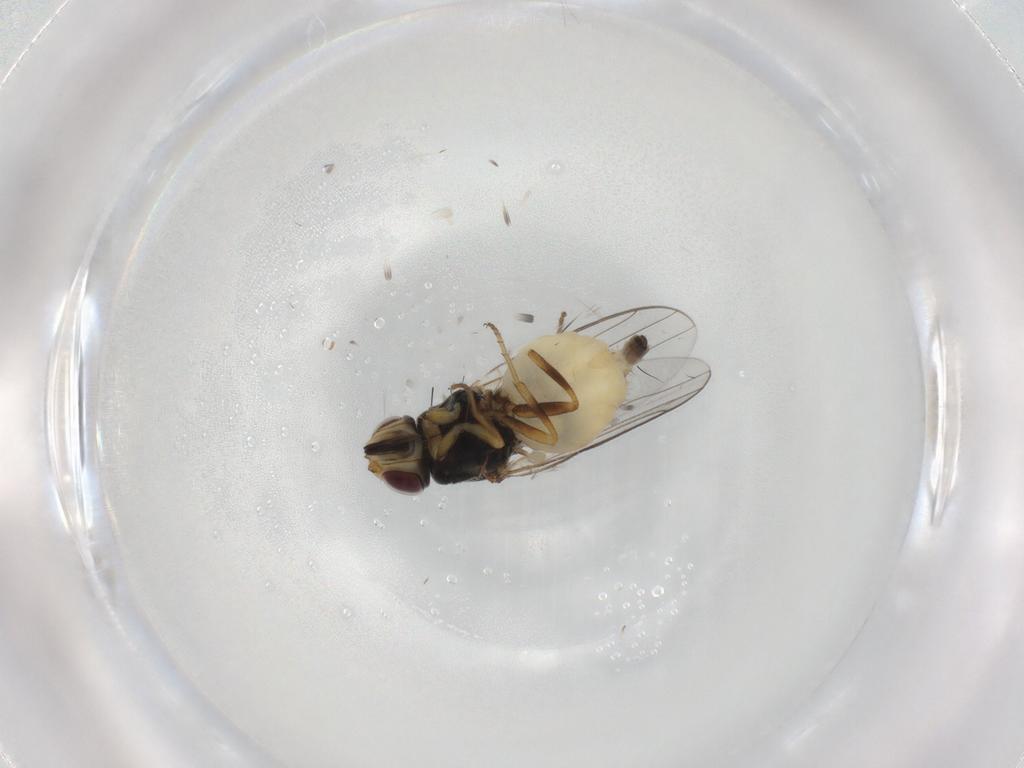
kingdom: Animalia
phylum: Arthropoda
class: Insecta
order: Diptera
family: Chloropidae
